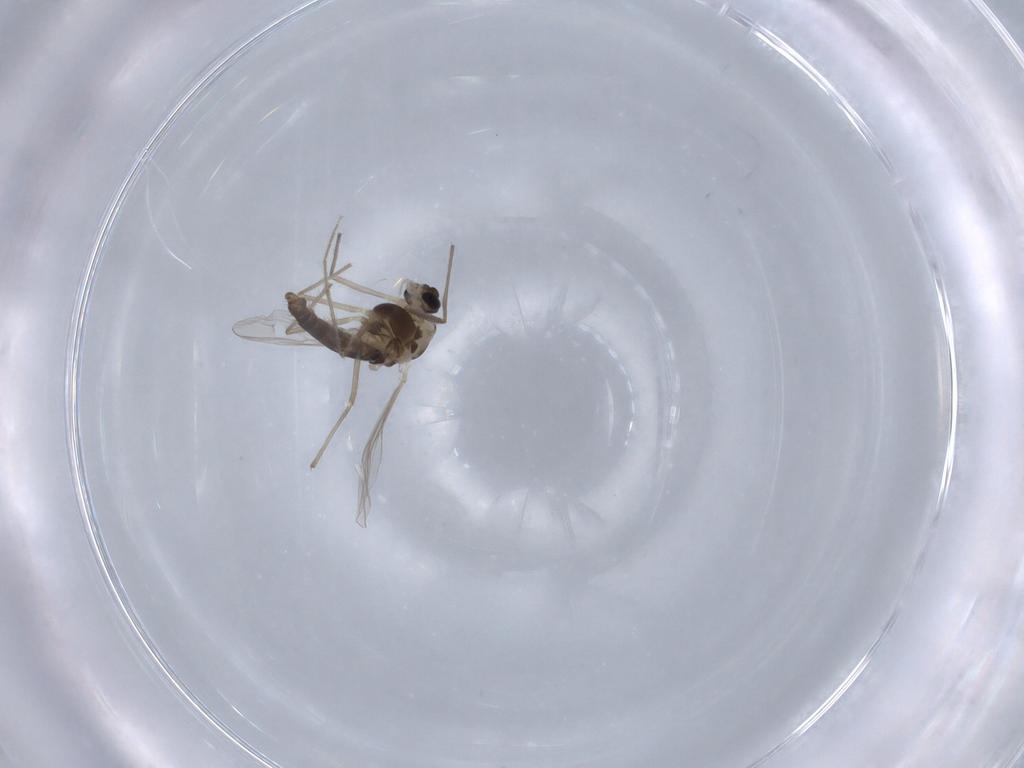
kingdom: Animalia
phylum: Arthropoda
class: Insecta
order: Diptera
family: Chironomidae
